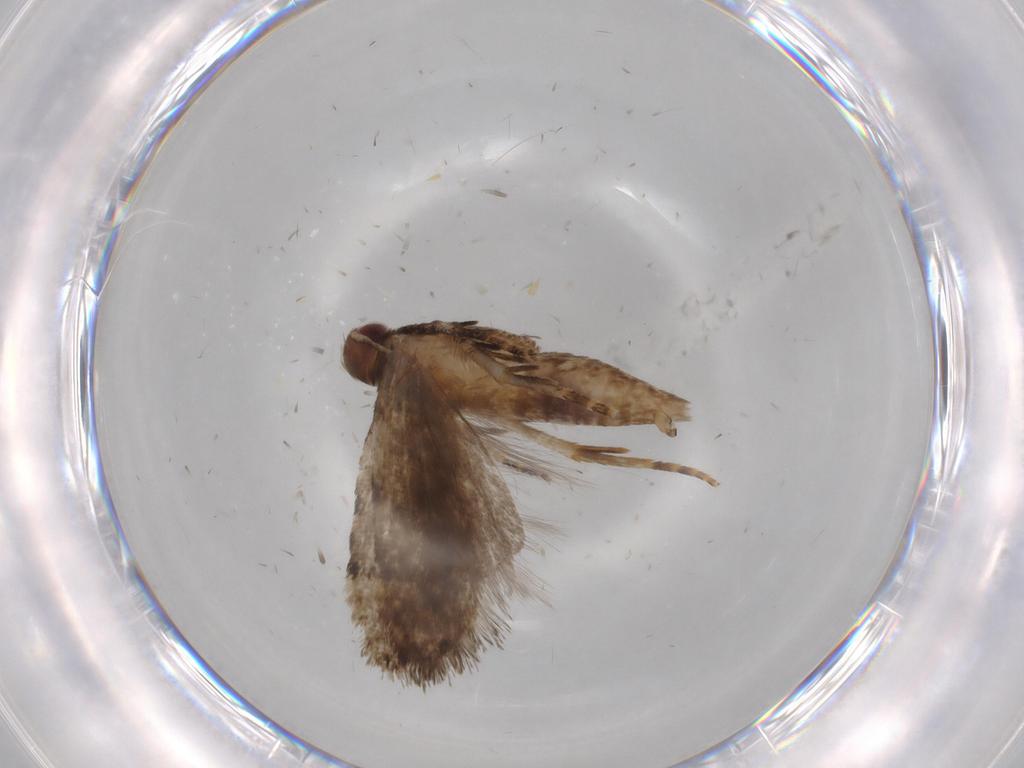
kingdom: Animalia
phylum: Arthropoda
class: Insecta
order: Lepidoptera
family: Gelechiidae
